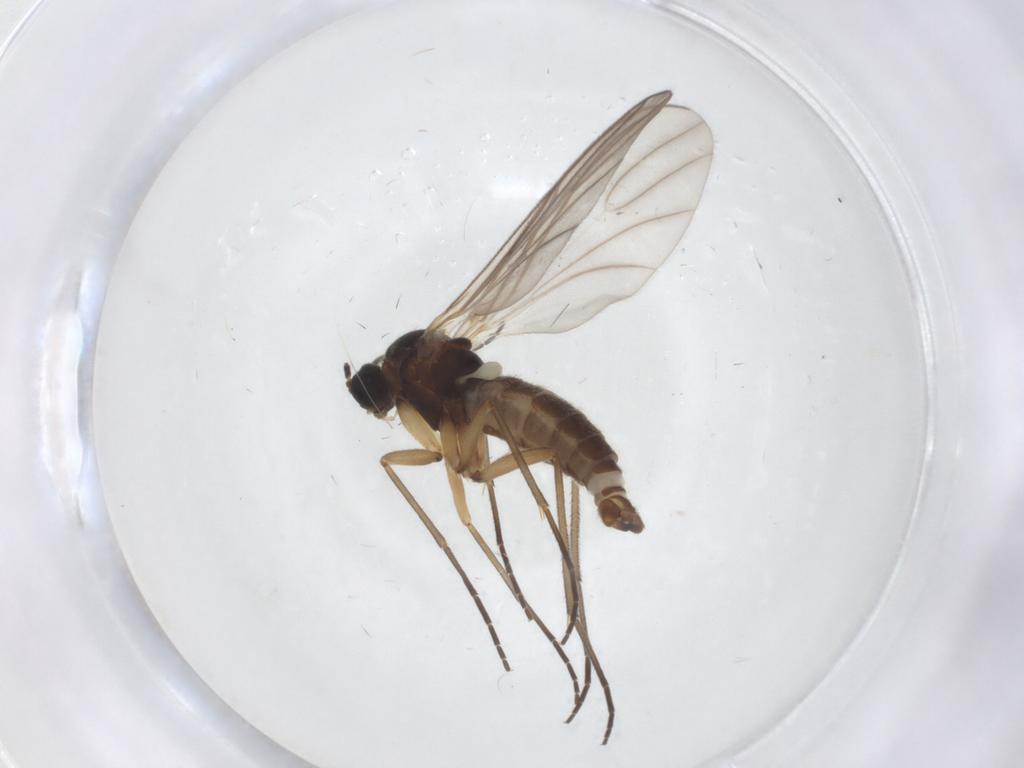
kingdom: Animalia
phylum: Arthropoda
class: Insecta
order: Diptera
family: Sciaridae
